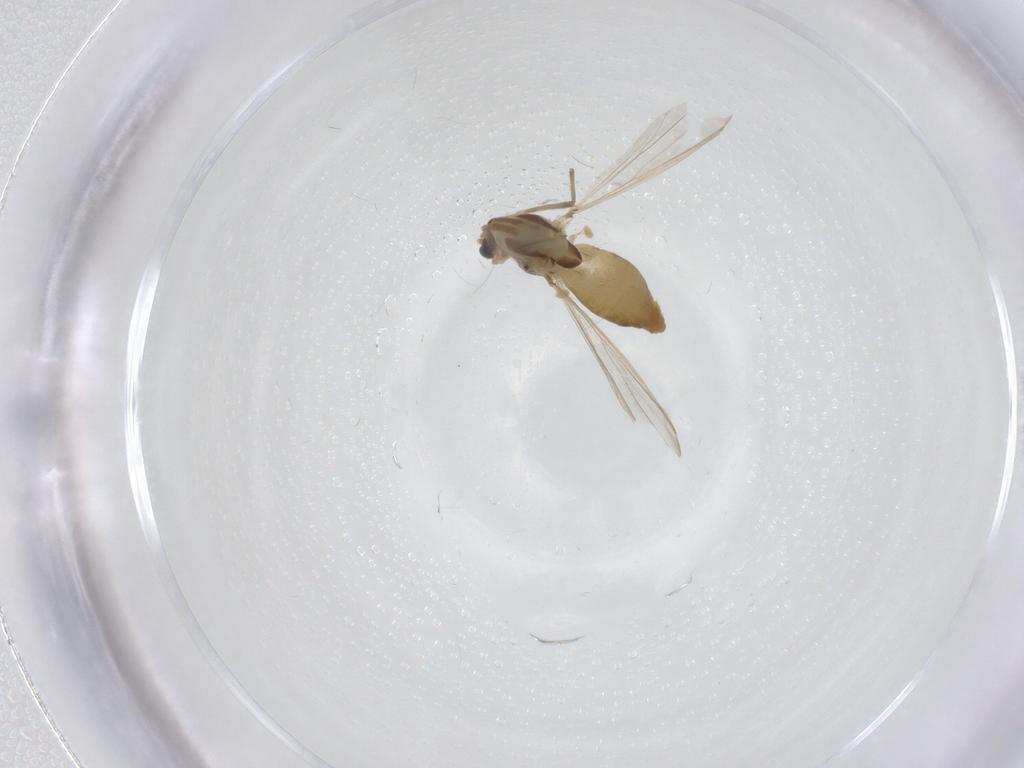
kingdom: Animalia
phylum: Arthropoda
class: Insecta
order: Diptera
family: Chironomidae
